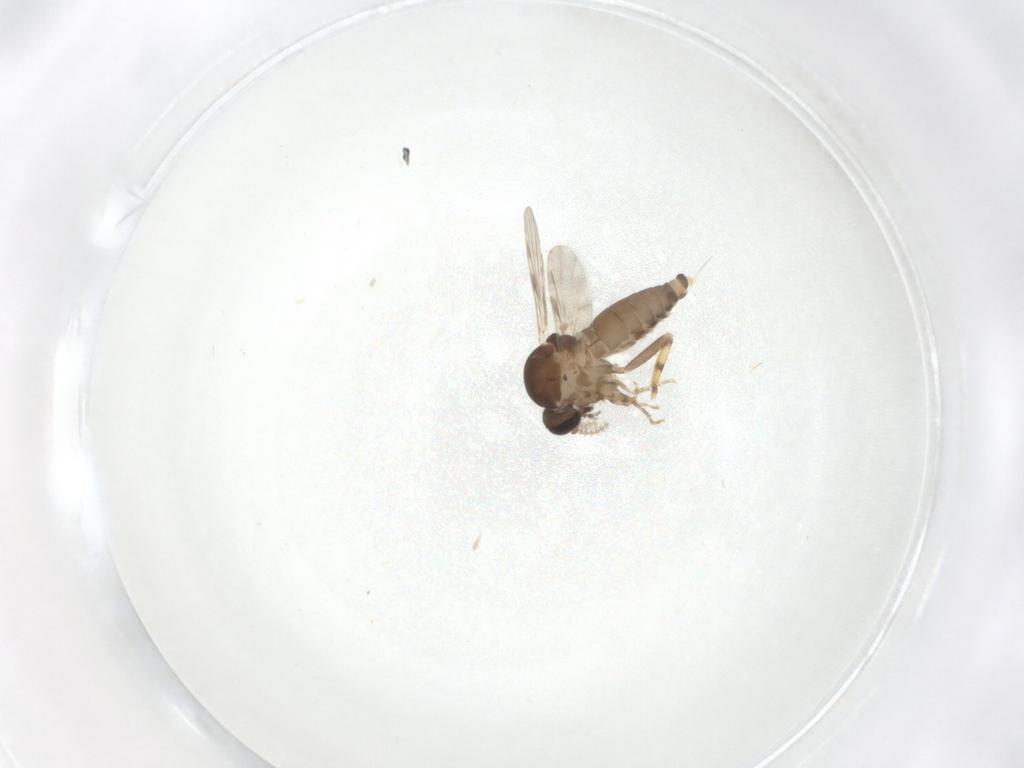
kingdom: Animalia
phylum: Arthropoda
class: Insecta
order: Diptera
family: Ceratopogonidae
